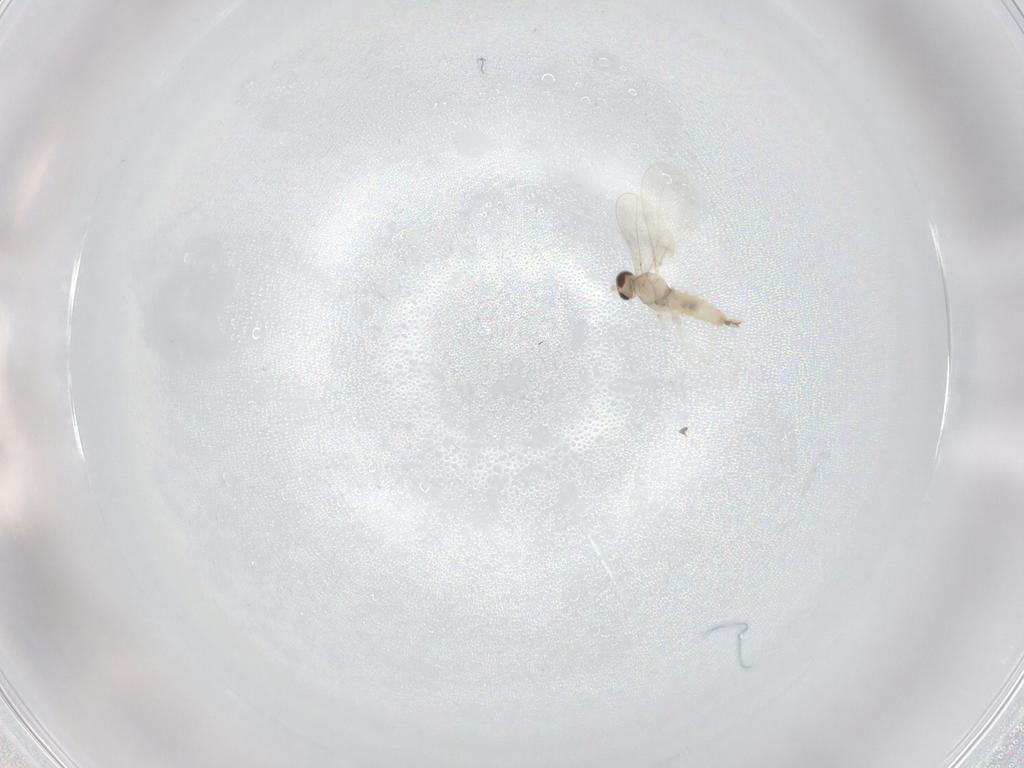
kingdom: Animalia
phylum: Arthropoda
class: Insecta
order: Diptera
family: Cecidomyiidae
